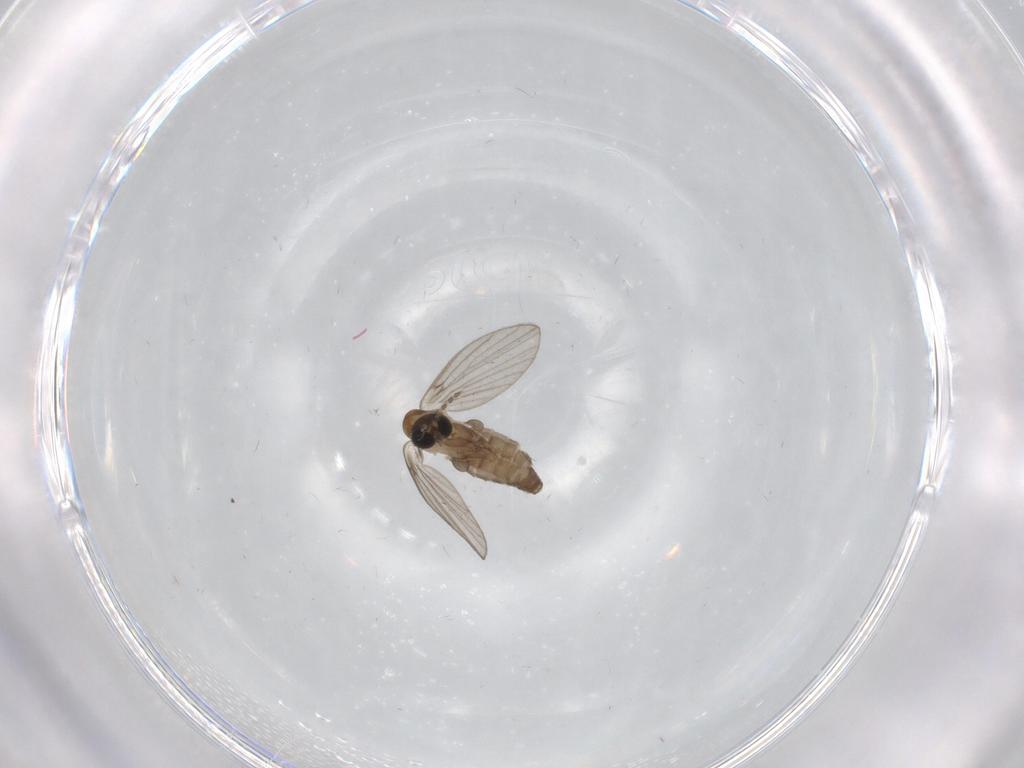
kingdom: Animalia
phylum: Arthropoda
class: Insecta
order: Diptera
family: Psychodidae
